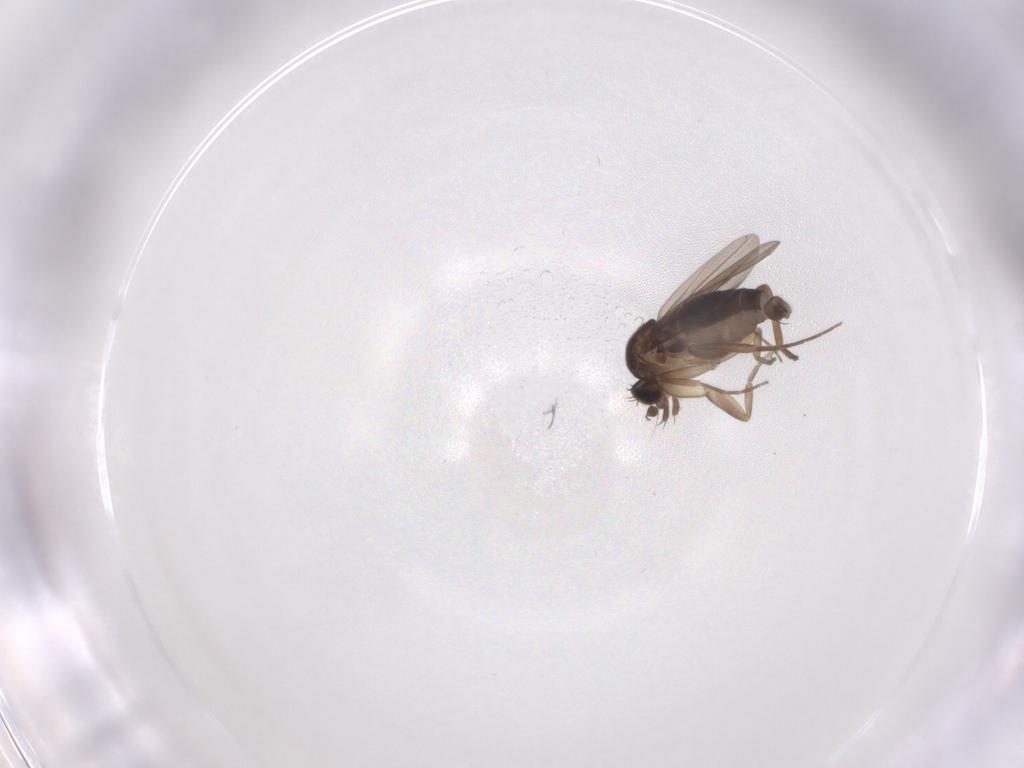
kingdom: Animalia
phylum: Arthropoda
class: Insecta
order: Diptera
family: Phoridae
